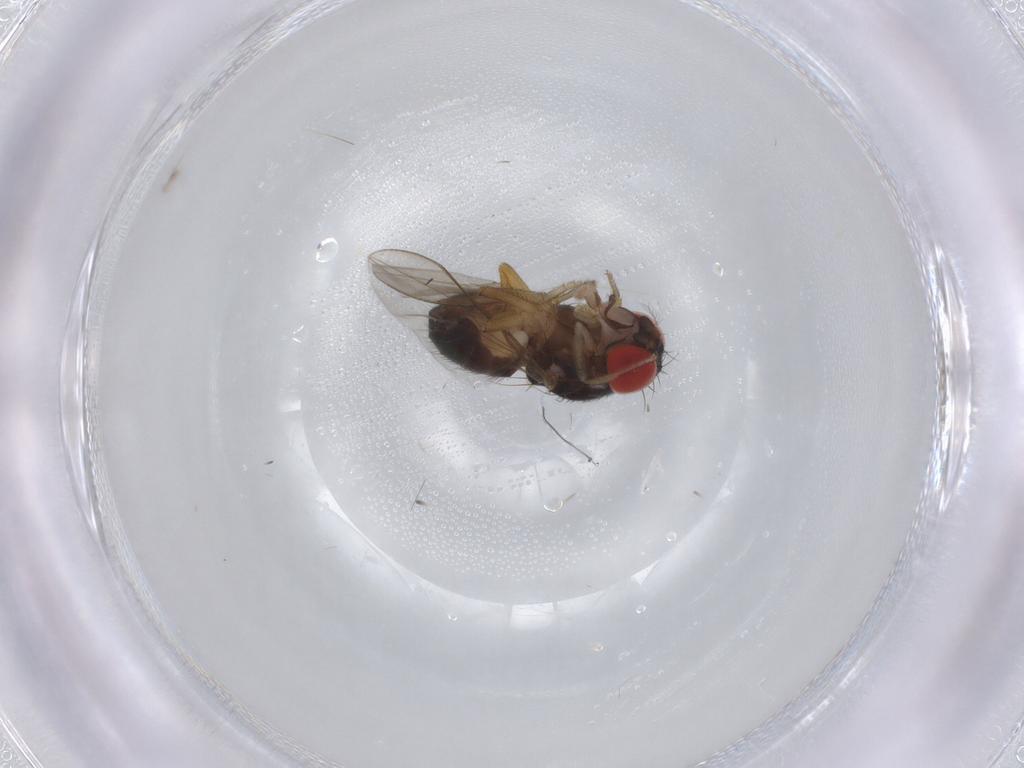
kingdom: Animalia
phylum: Arthropoda
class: Insecta
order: Diptera
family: Drosophilidae
